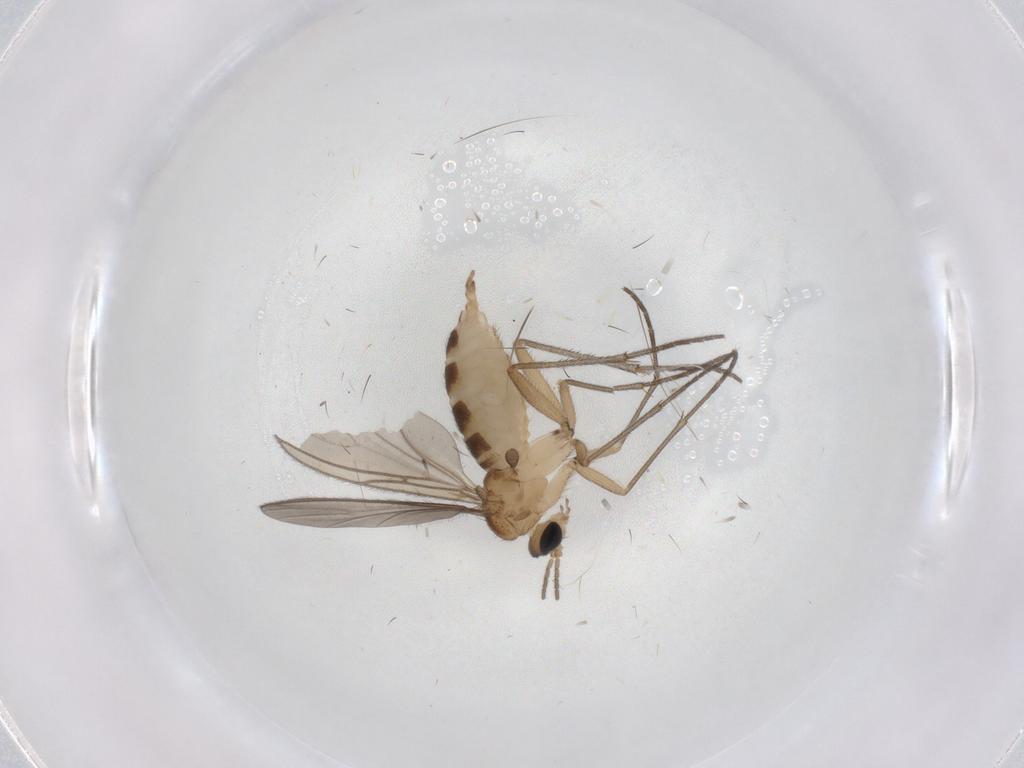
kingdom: Animalia
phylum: Arthropoda
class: Insecta
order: Diptera
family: Sciaridae
